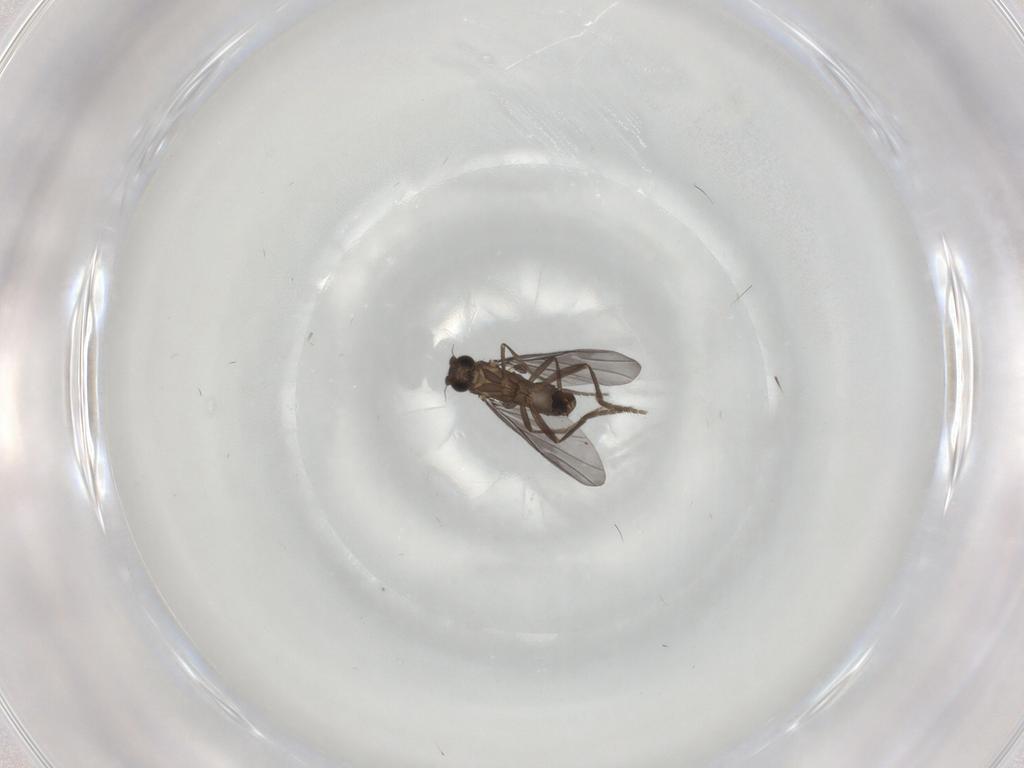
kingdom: Animalia
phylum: Arthropoda
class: Insecta
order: Diptera
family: Phoridae
